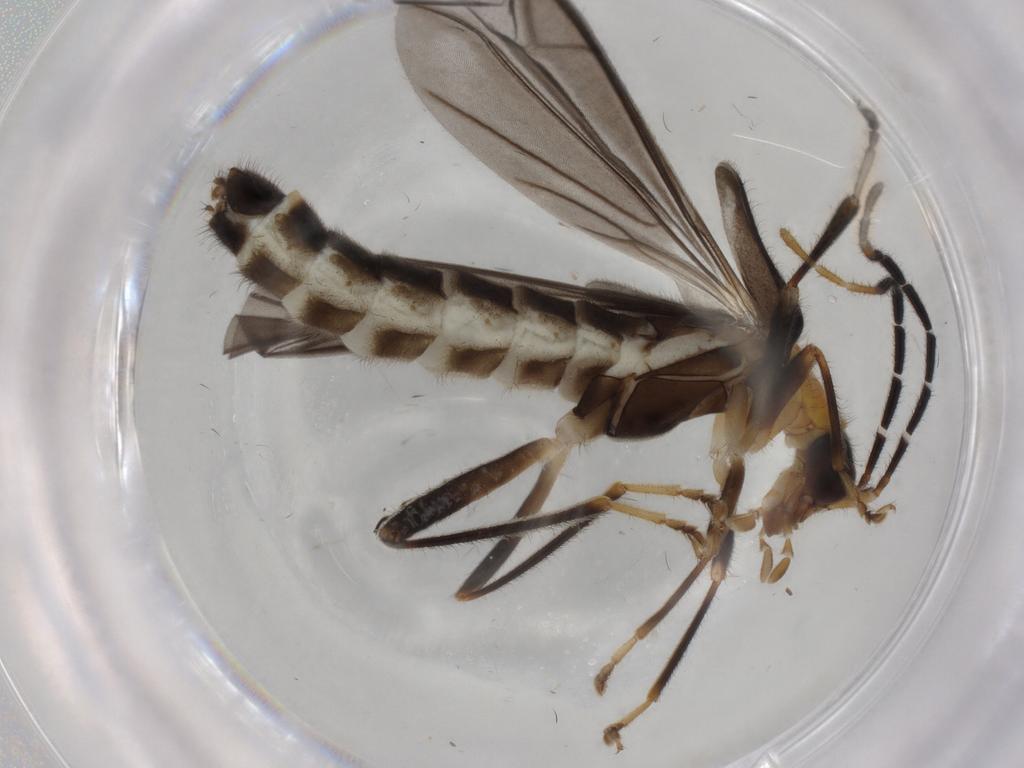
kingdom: Animalia
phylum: Arthropoda
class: Insecta
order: Coleoptera
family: Cantharidae
